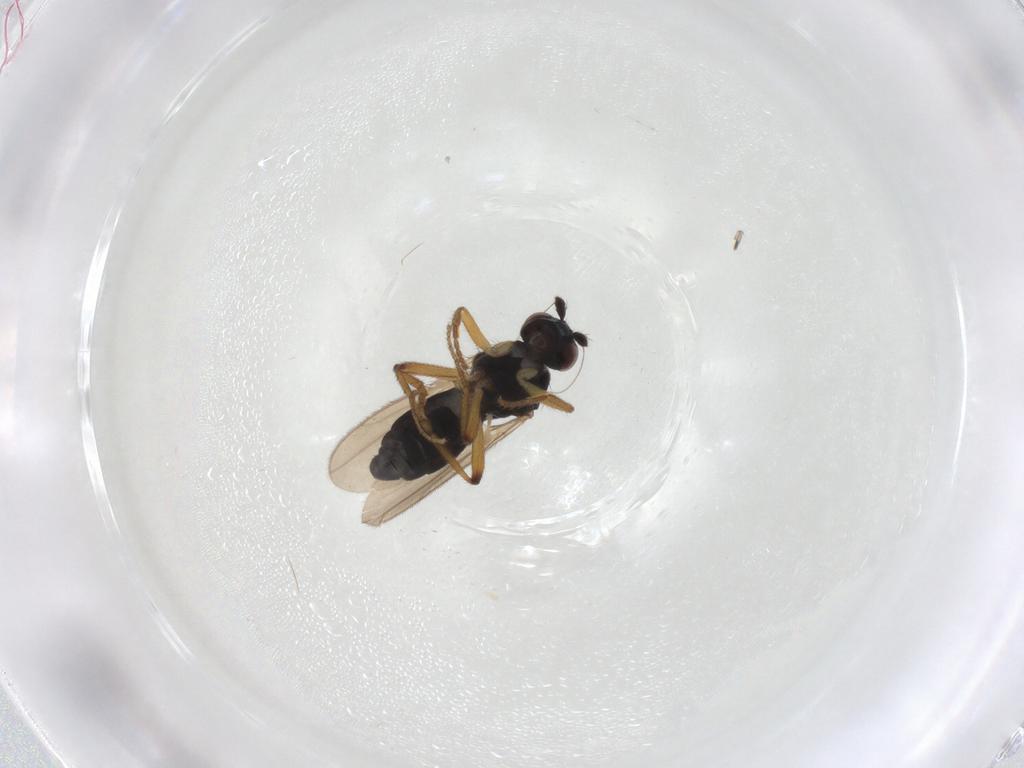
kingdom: Animalia
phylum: Arthropoda
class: Insecta
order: Diptera
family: Sphaeroceridae
